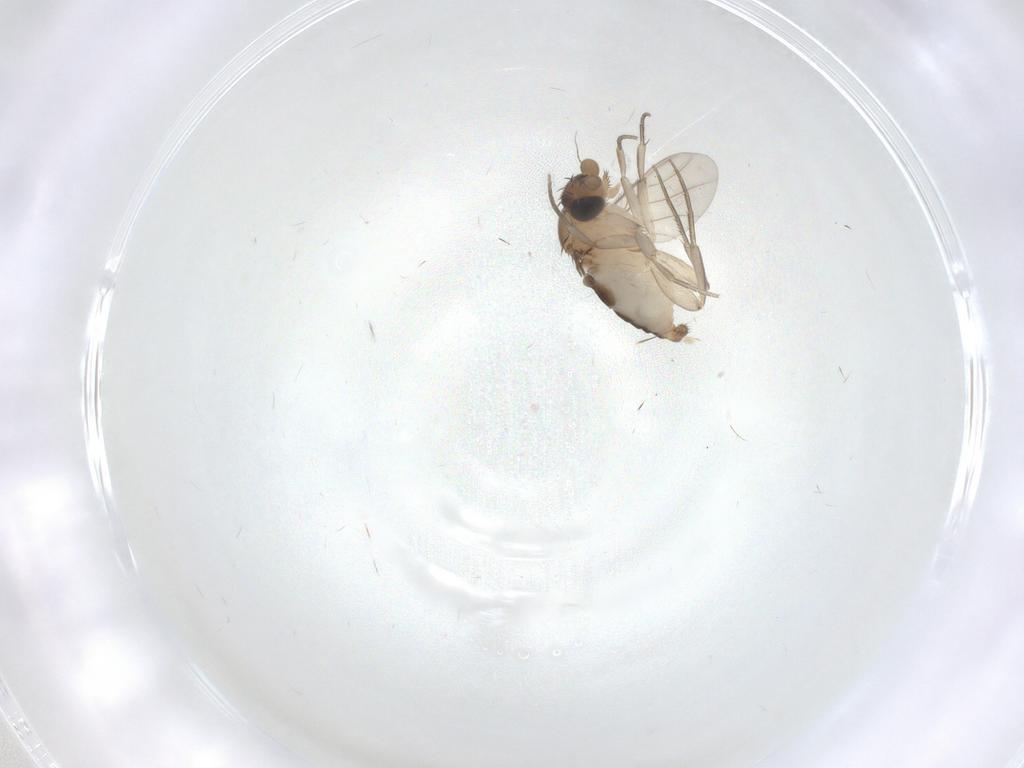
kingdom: Animalia
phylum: Arthropoda
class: Insecta
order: Diptera
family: Phoridae
